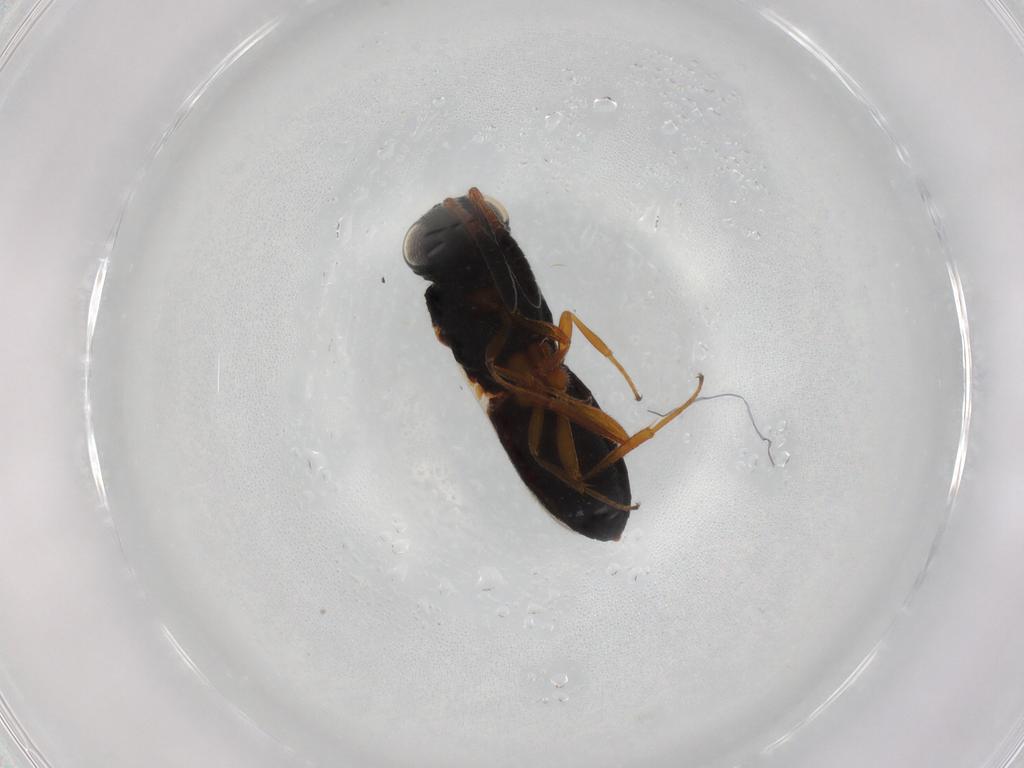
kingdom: Animalia
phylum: Arthropoda
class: Insecta
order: Hymenoptera
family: Scelionidae
